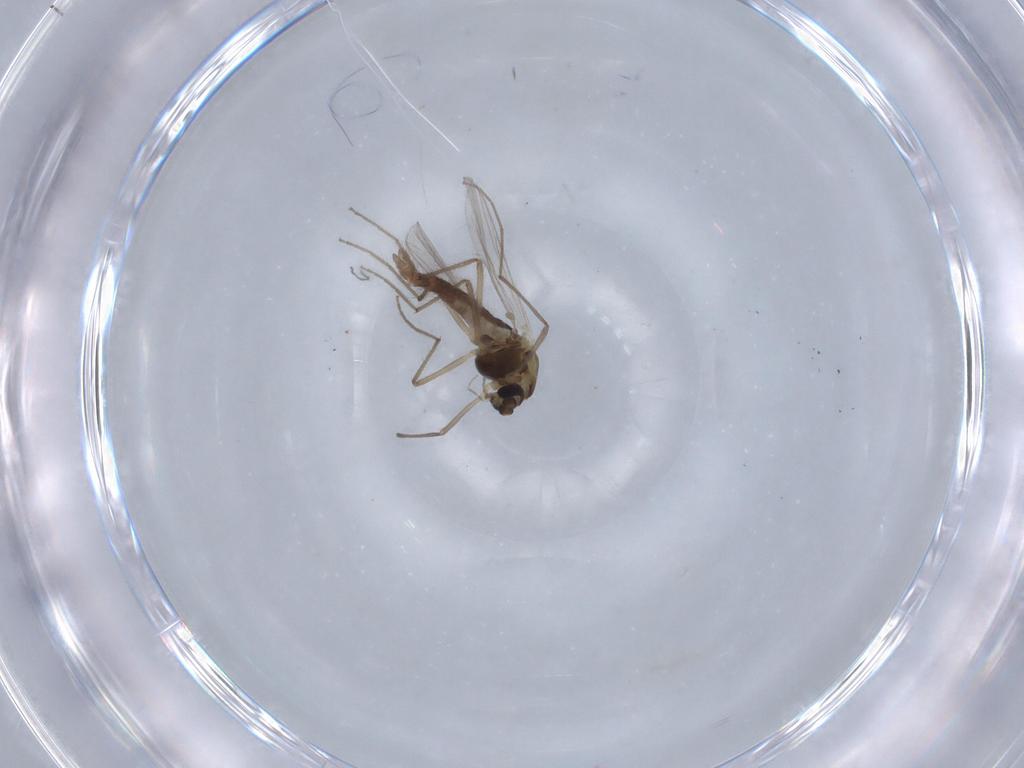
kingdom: Animalia
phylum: Arthropoda
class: Insecta
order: Diptera
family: Chironomidae
